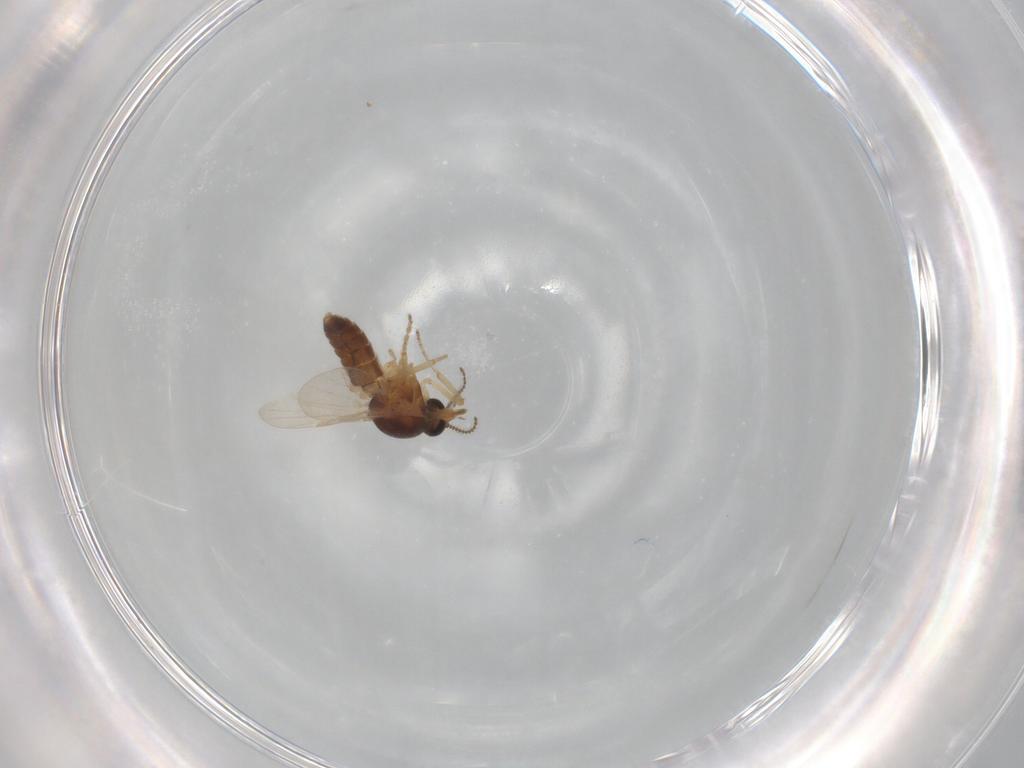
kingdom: Animalia
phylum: Arthropoda
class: Insecta
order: Diptera
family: Ceratopogonidae
